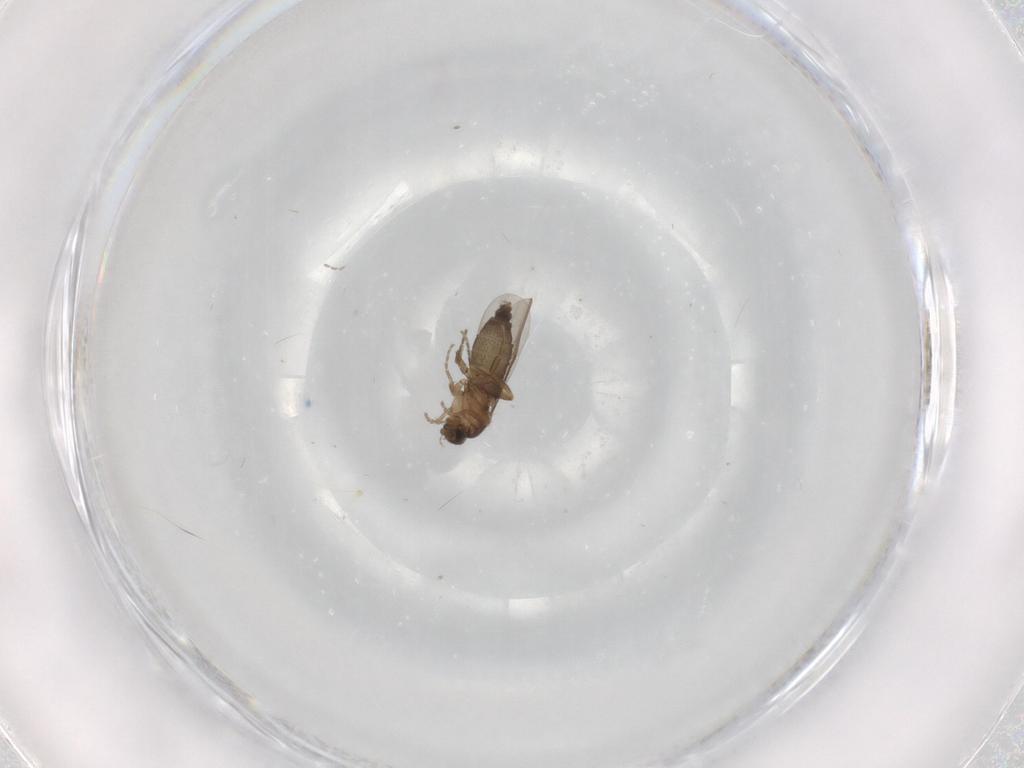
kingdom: Animalia
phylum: Arthropoda
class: Insecta
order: Diptera
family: Phoridae
